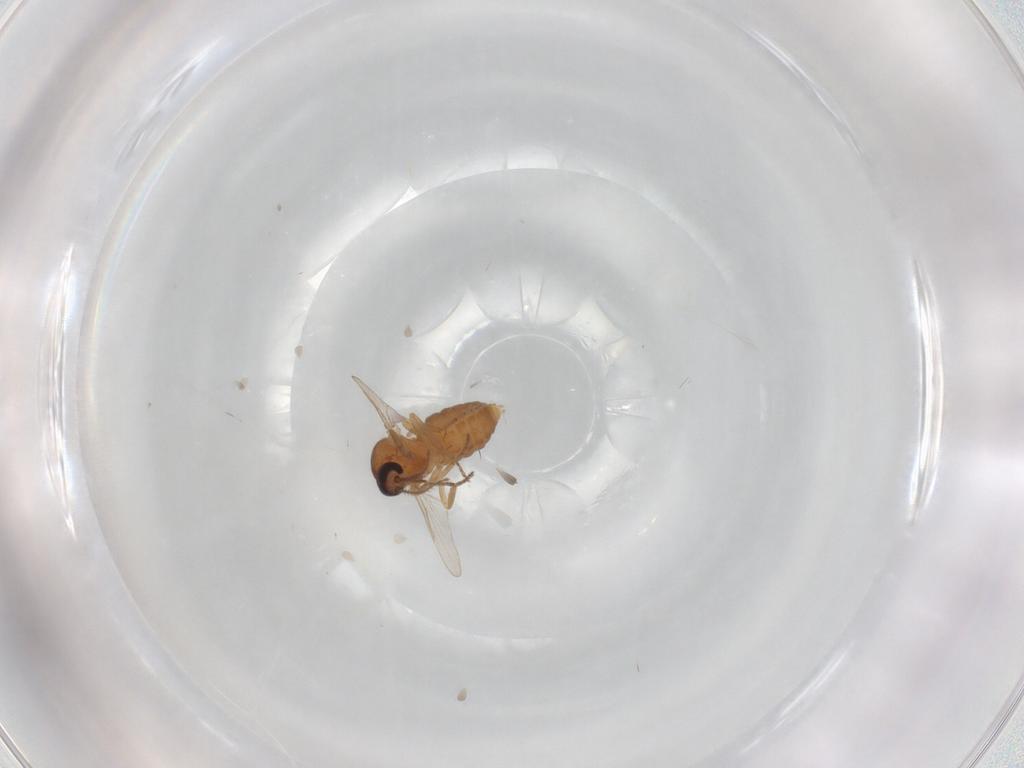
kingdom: Animalia
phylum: Arthropoda
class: Insecta
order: Diptera
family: Ceratopogonidae
